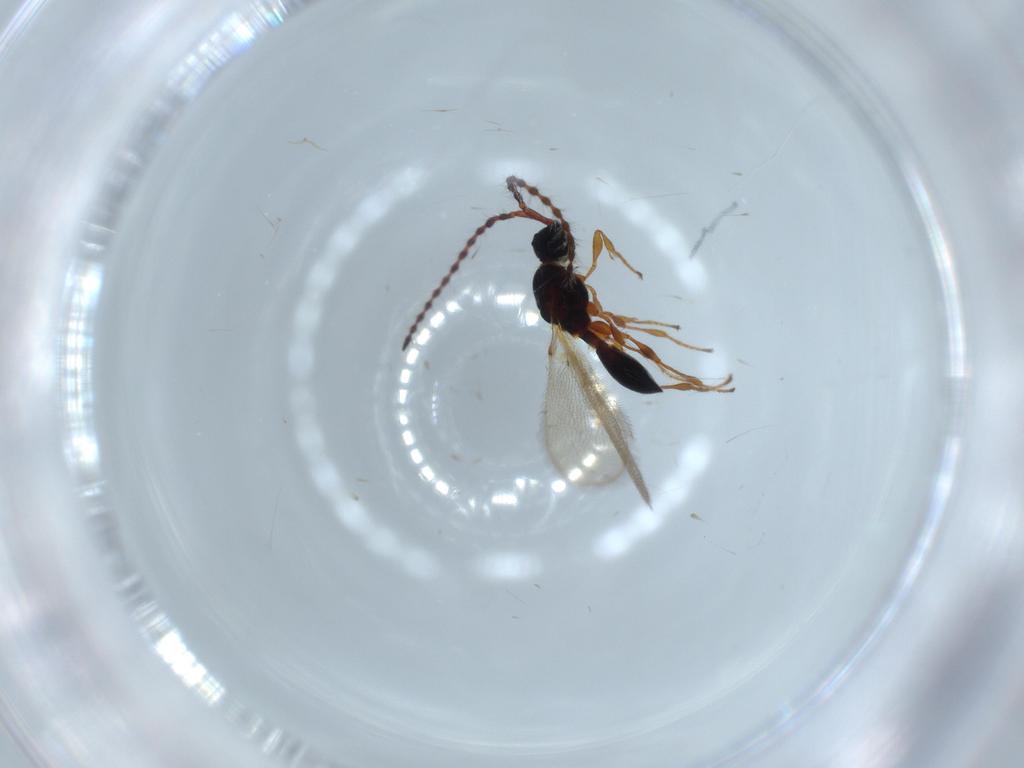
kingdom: Animalia
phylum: Arthropoda
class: Insecta
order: Hymenoptera
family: Diapriidae
